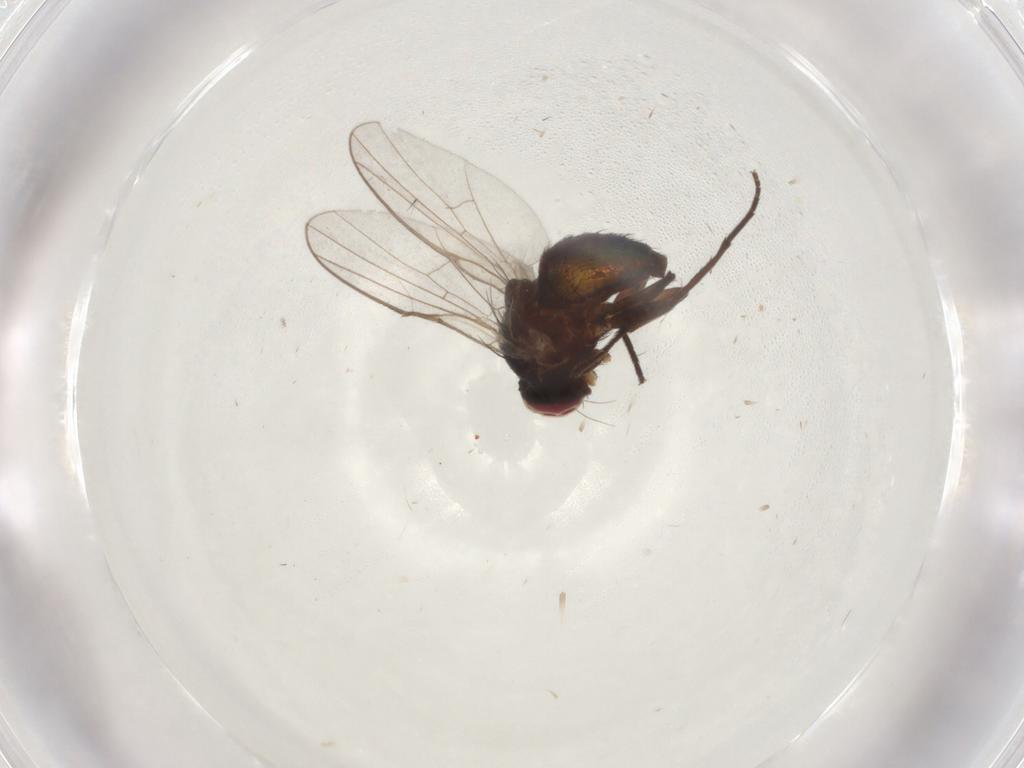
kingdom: Animalia
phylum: Arthropoda
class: Insecta
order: Diptera
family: Agromyzidae
